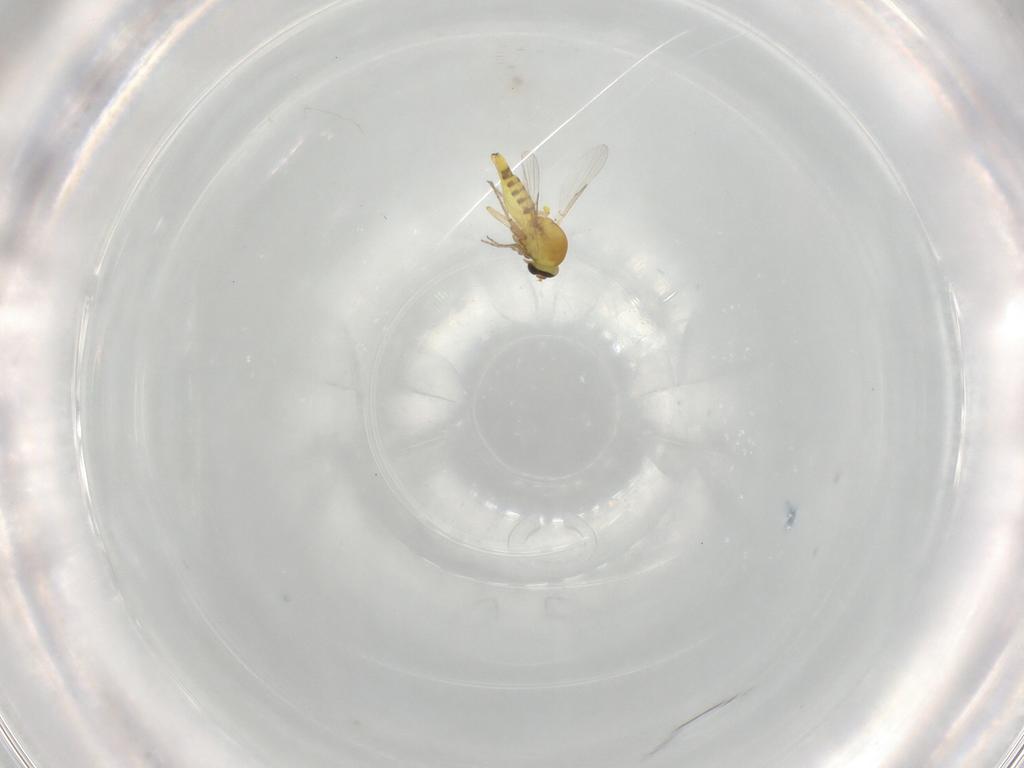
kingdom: Animalia
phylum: Arthropoda
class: Insecta
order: Diptera
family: Ceratopogonidae
